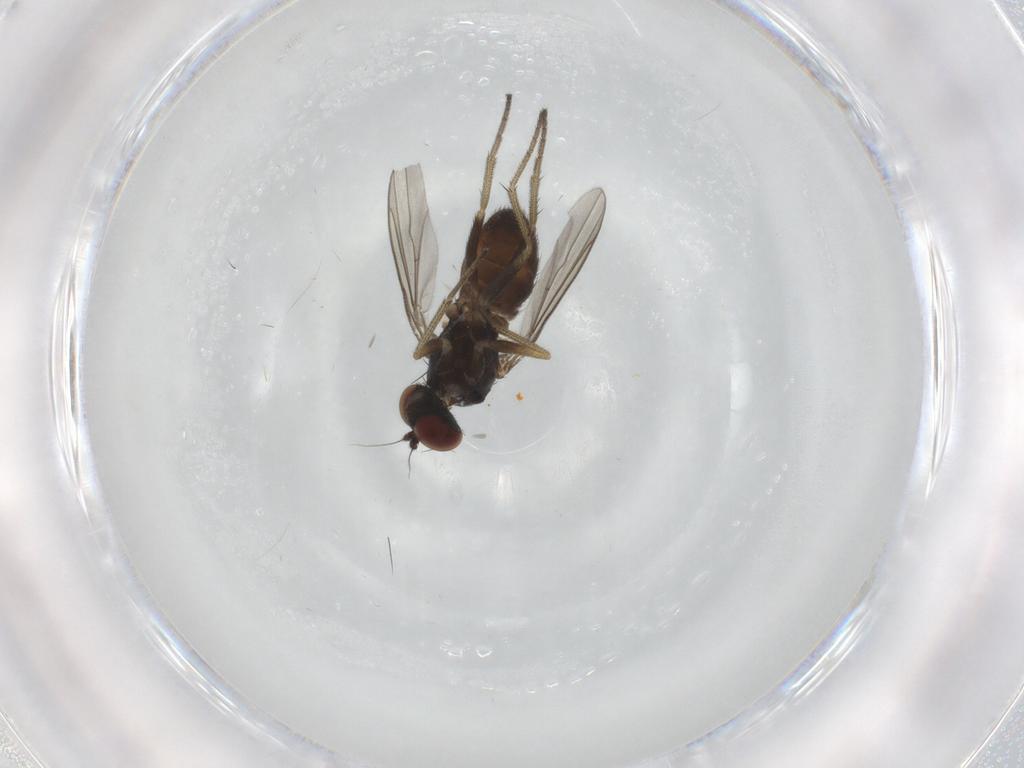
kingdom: Animalia
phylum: Arthropoda
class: Insecta
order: Diptera
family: Dolichopodidae
